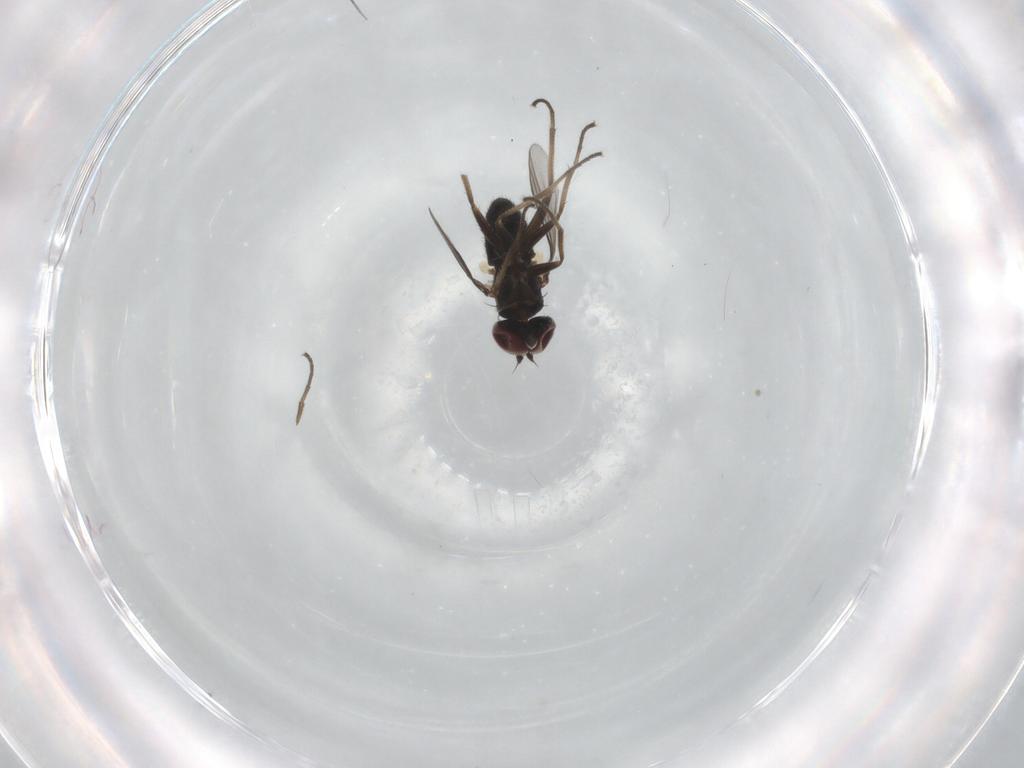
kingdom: Animalia
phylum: Arthropoda
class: Insecta
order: Diptera
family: Dolichopodidae
